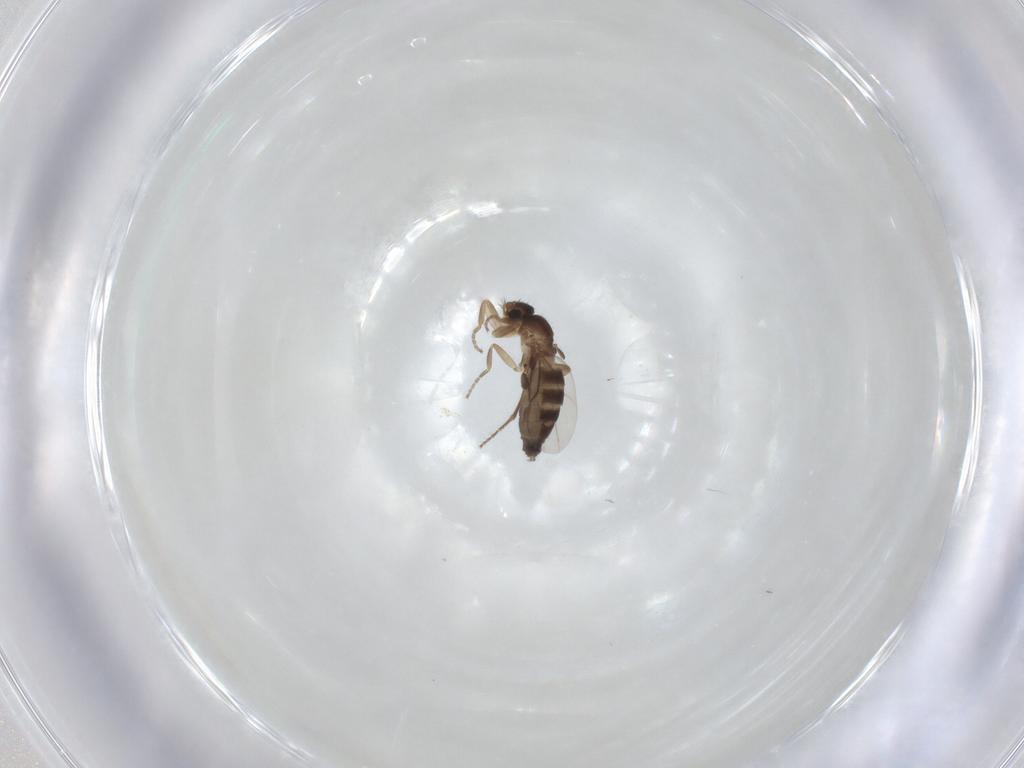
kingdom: Animalia
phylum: Arthropoda
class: Insecta
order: Diptera
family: Phoridae
